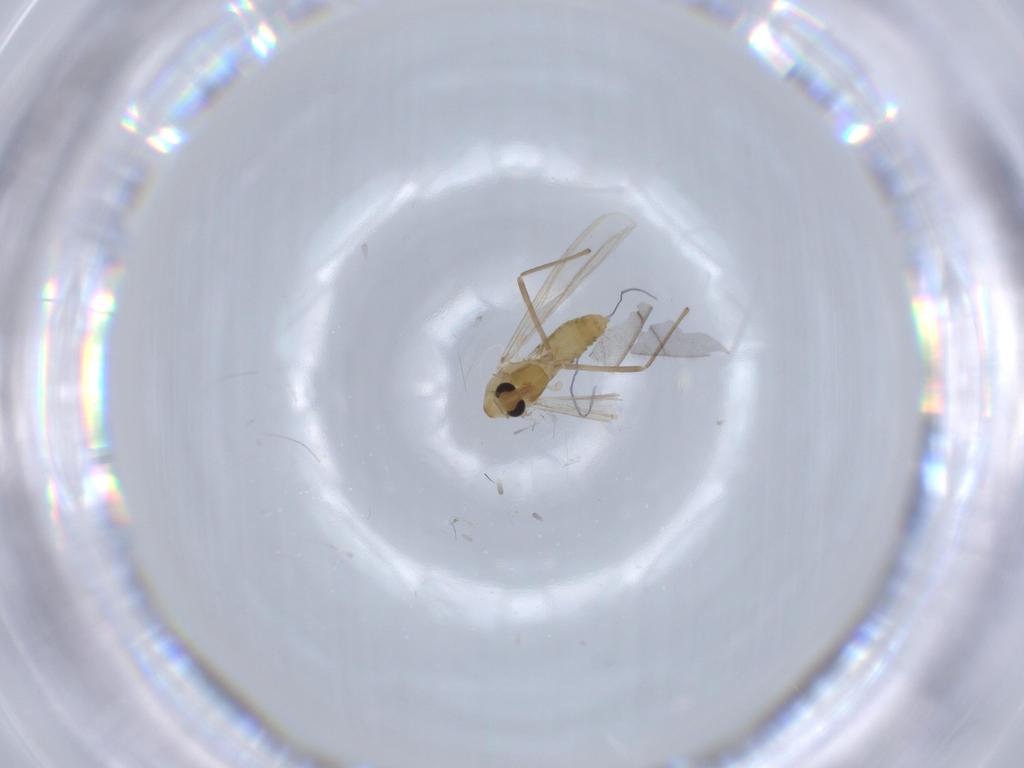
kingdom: Animalia
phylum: Arthropoda
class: Insecta
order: Diptera
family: Chironomidae
